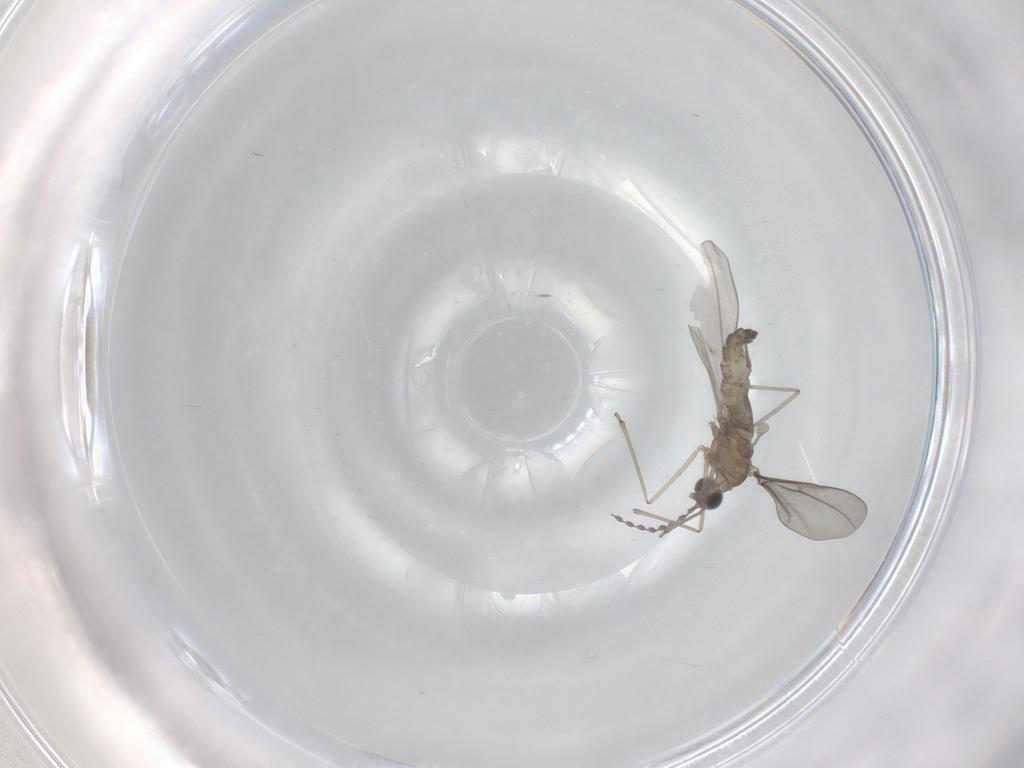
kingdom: Animalia
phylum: Arthropoda
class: Insecta
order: Diptera
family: Cecidomyiidae
